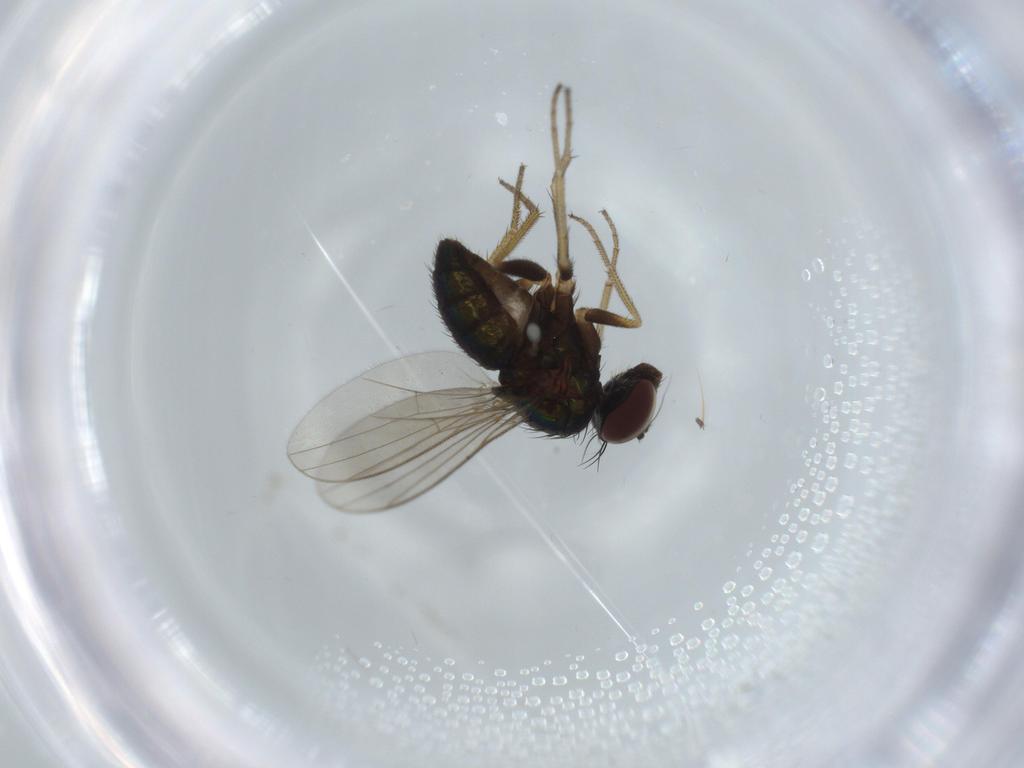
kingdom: Animalia
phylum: Arthropoda
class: Insecta
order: Diptera
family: Sciaridae
